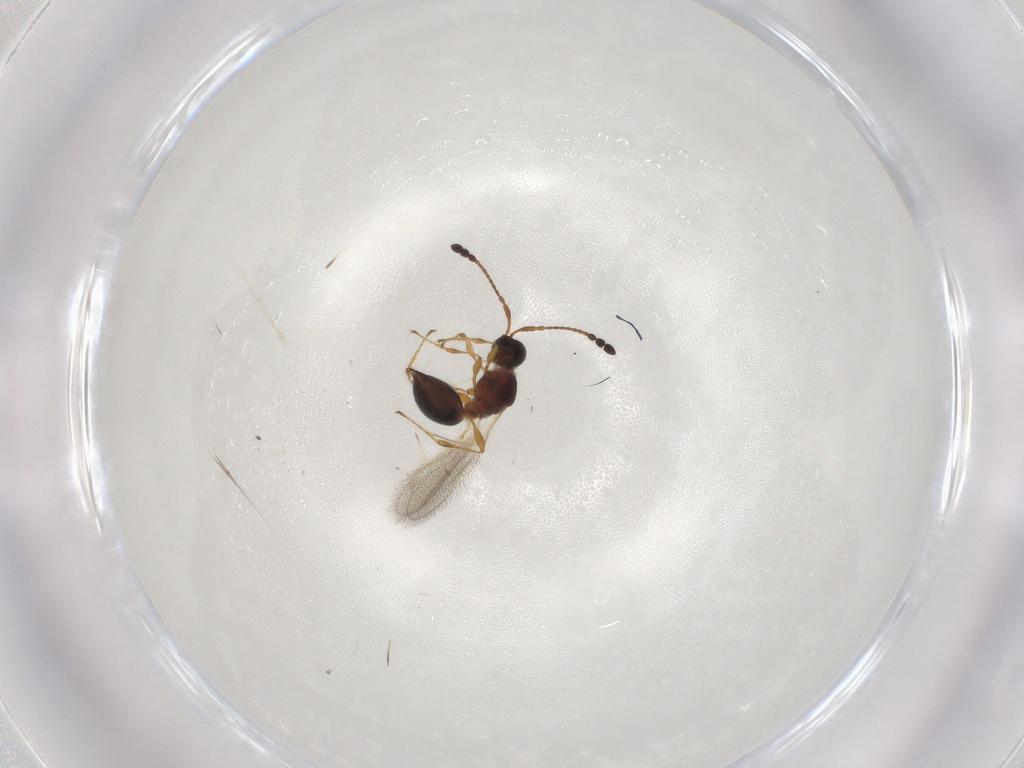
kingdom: Animalia
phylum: Arthropoda
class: Insecta
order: Hymenoptera
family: Diapriidae
